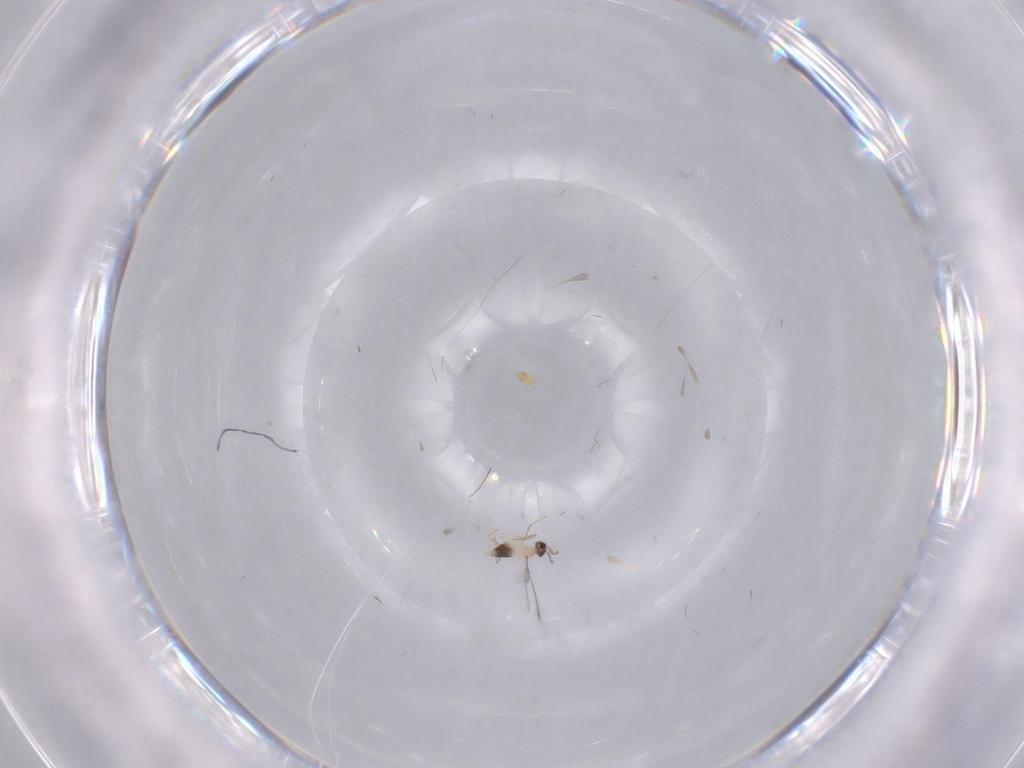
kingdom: Animalia
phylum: Arthropoda
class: Insecta
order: Hymenoptera
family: Mymaridae
